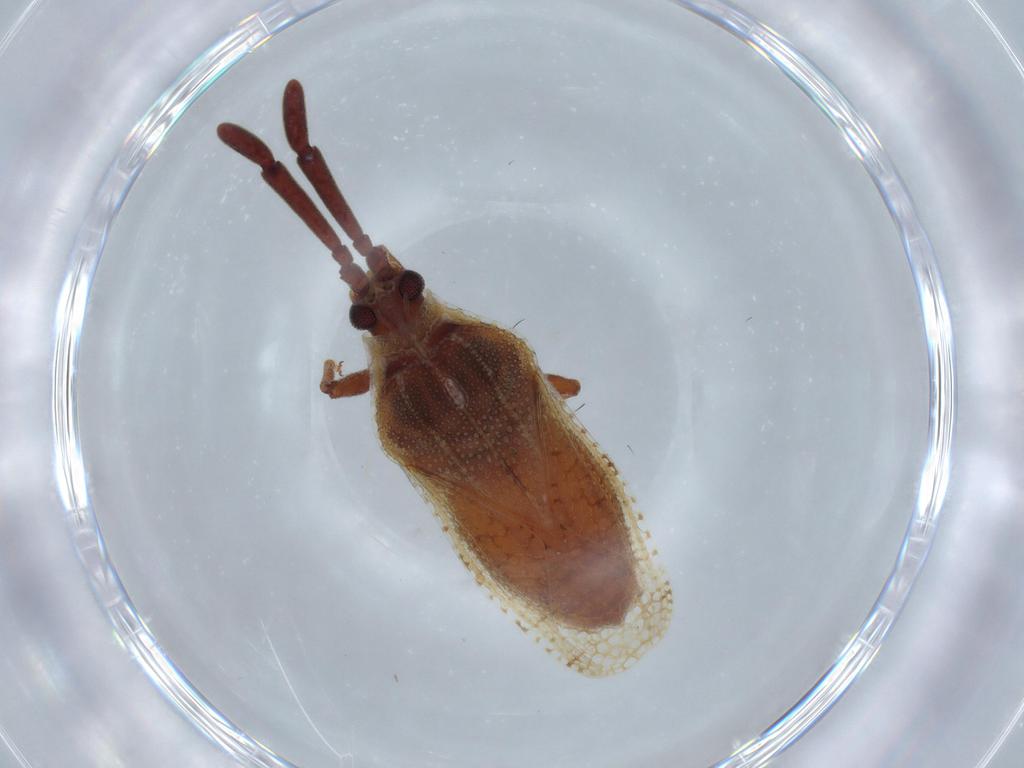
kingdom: Animalia
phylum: Arthropoda
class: Insecta
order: Hemiptera
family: Tingidae
